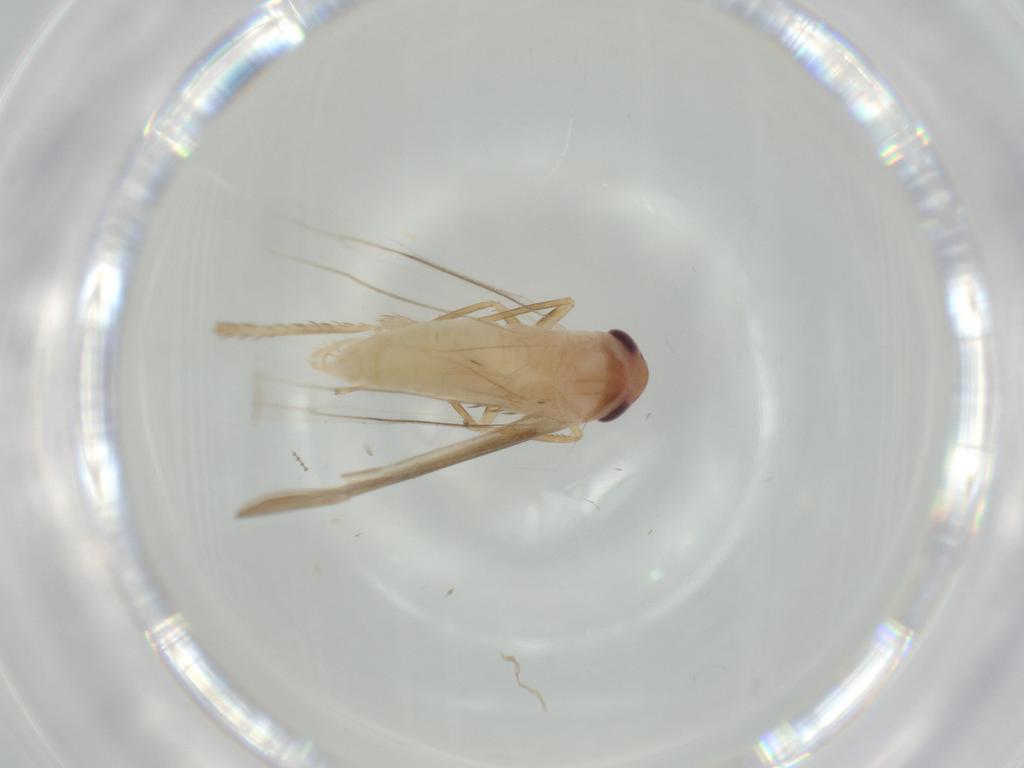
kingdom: Animalia
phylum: Arthropoda
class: Insecta
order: Hemiptera
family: Cicadellidae
